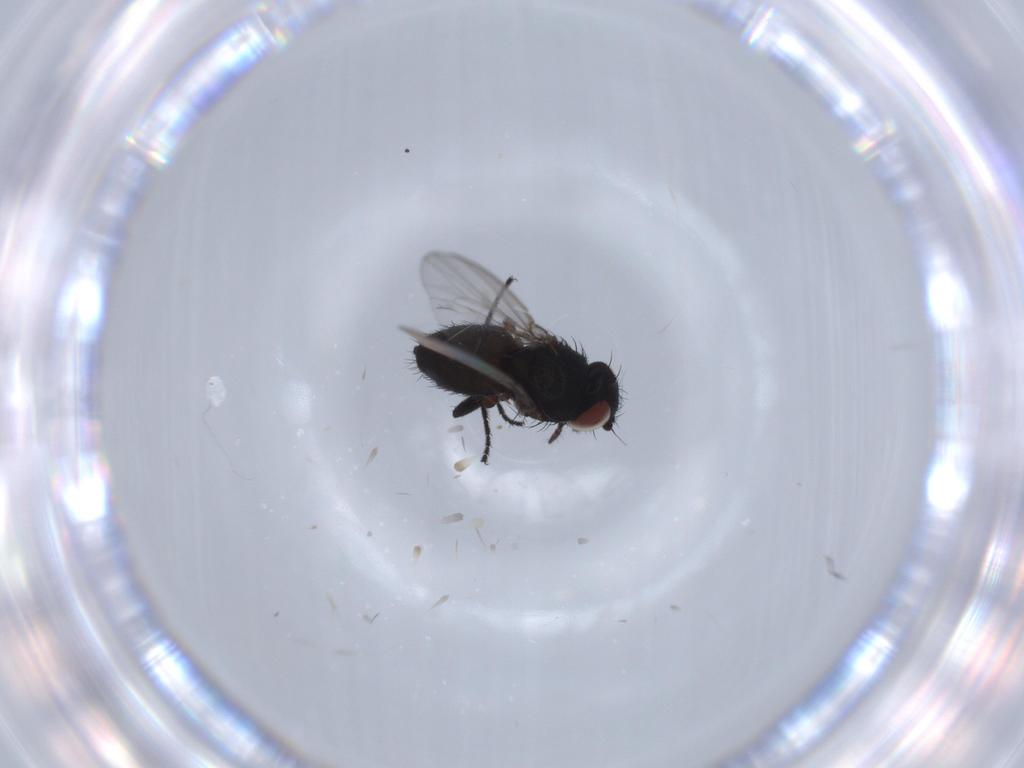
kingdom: Animalia
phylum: Arthropoda
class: Insecta
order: Diptera
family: Milichiidae
